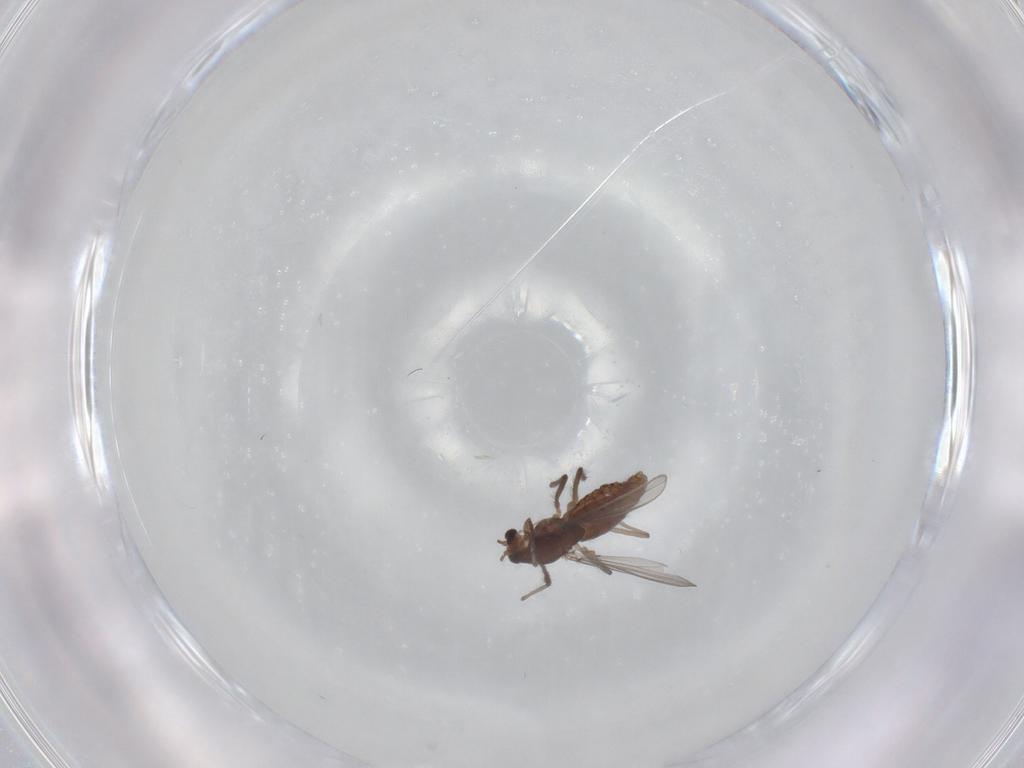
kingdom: Animalia
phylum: Arthropoda
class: Insecta
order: Diptera
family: Chironomidae
